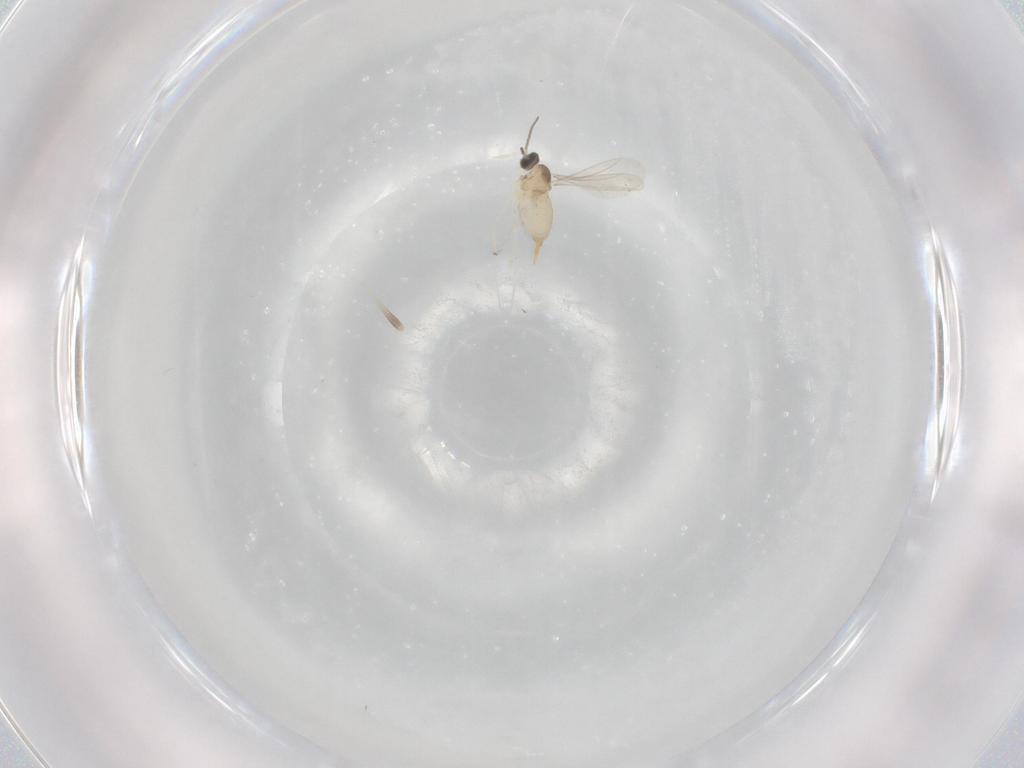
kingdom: Animalia
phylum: Arthropoda
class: Insecta
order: Diptera
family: Cecidomyiidae
